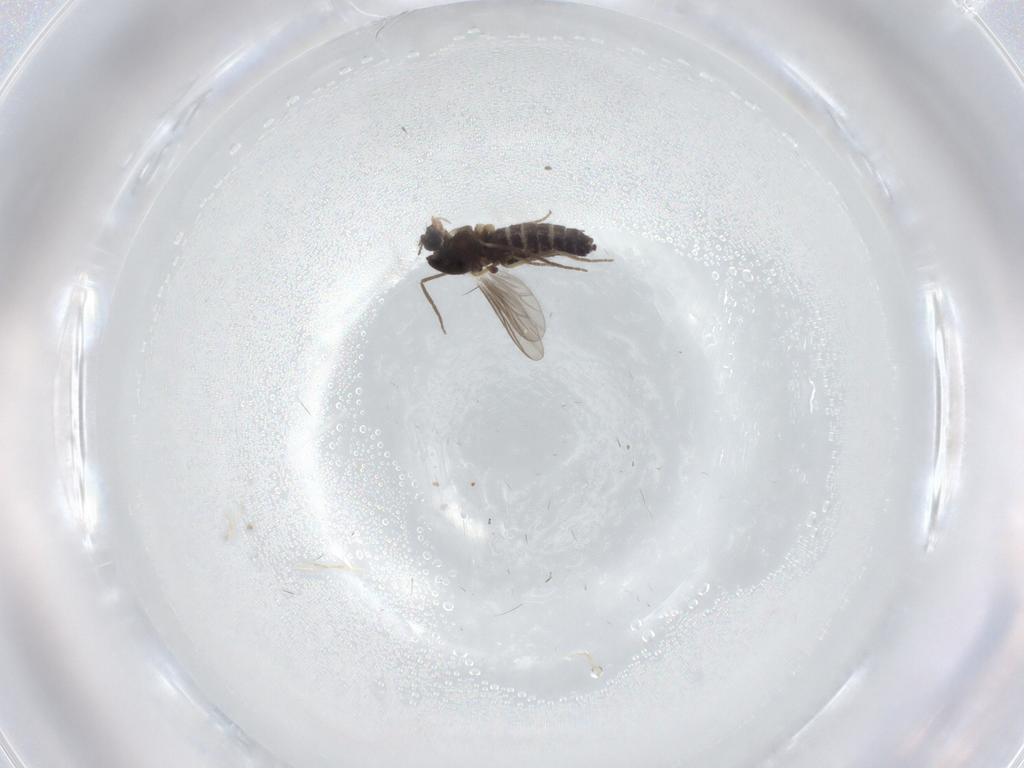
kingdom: Animalia
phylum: Arthropoda
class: Insecta
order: Diptera
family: Chironomidae
